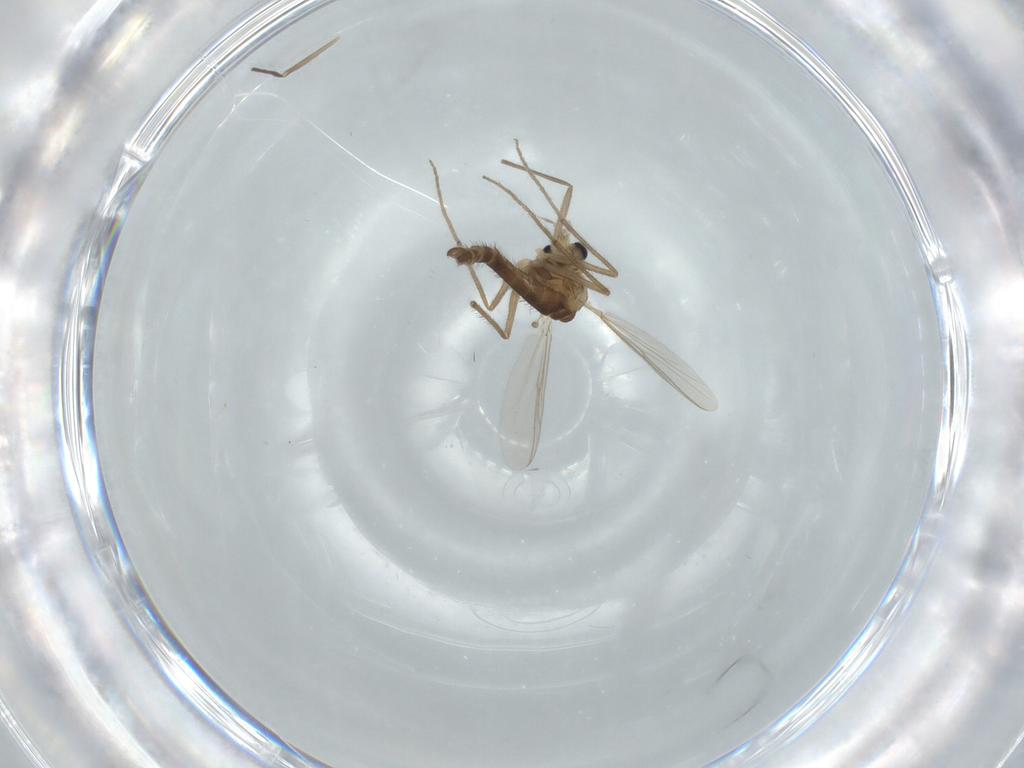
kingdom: Animalia
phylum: Arthropoda
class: Insecta
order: Diptera
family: Chironomidae
